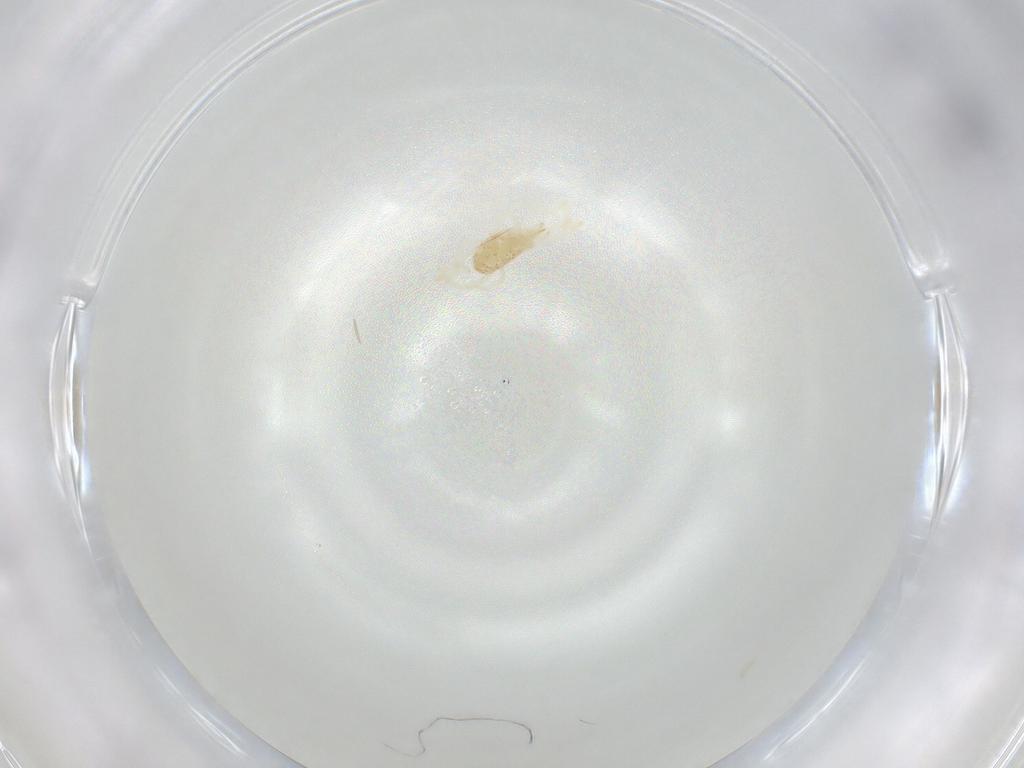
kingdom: Animalia
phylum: Arthropoda
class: Arachnida
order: Trombidiformes
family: Erythraeidae
